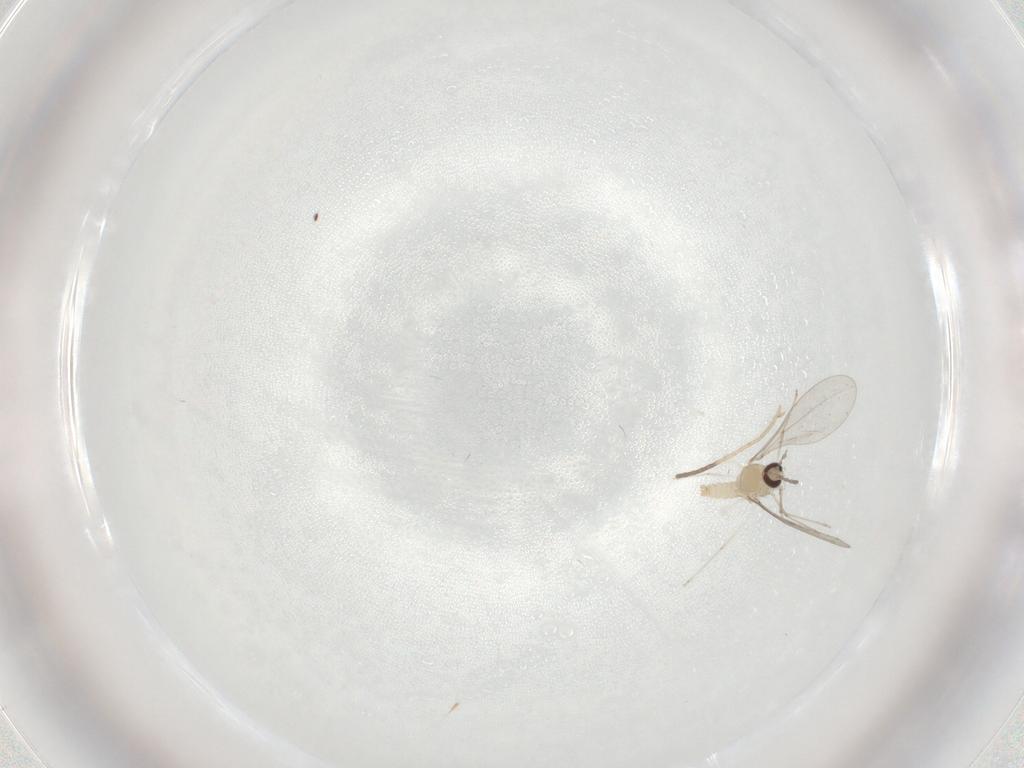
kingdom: Animalia
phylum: Arthropoda
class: Insecta
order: Diptera
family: Cecidomyiidae
